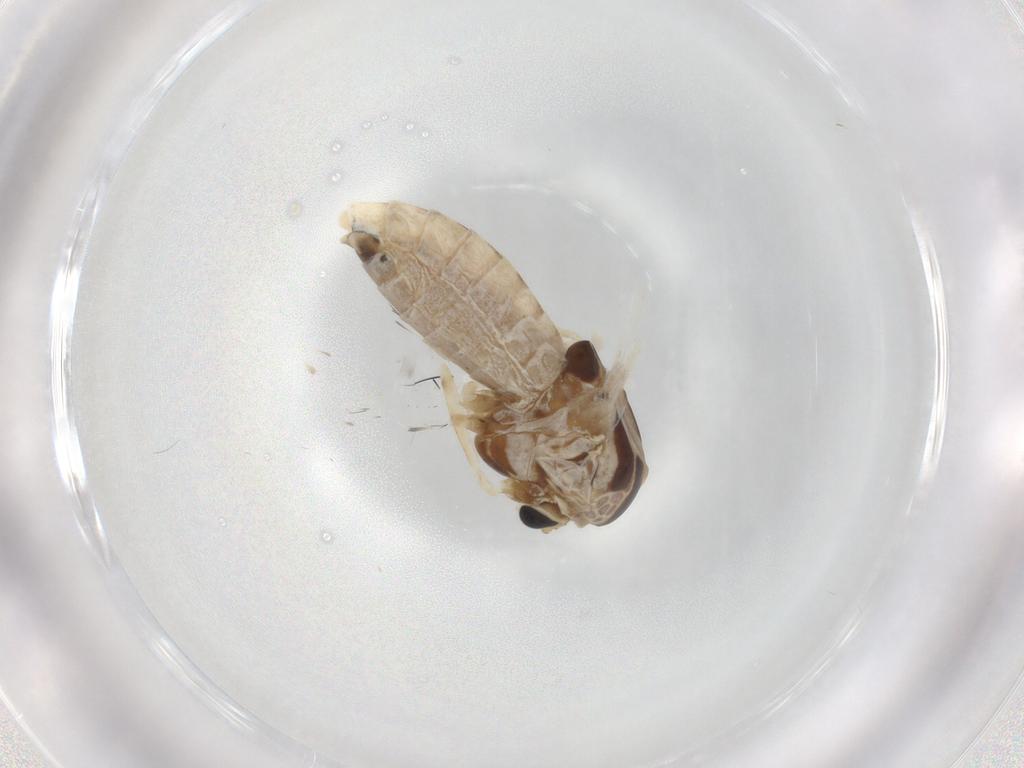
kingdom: Animalia
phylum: Arthropoda
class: Insecta
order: Diptera
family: Chironomidae
